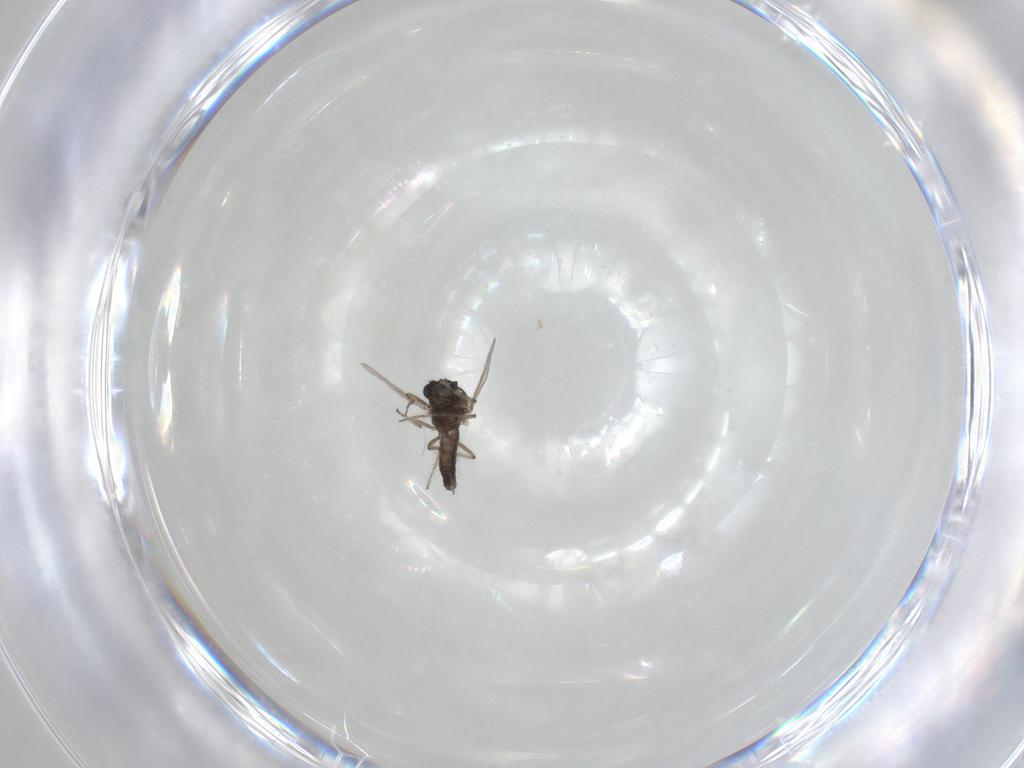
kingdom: Animalia
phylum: Arthropoda
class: Insecta
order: Diptera
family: Ceratopogonidae
